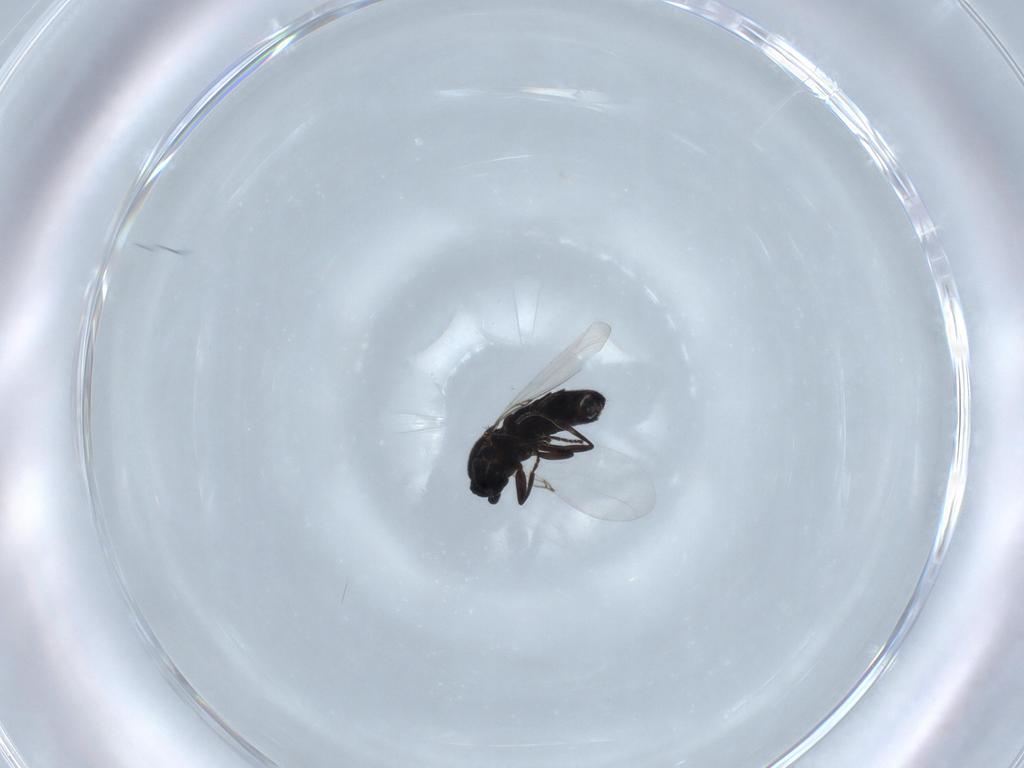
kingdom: Animalia
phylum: Arthropoda
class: Insecta
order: Diptera
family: Scatopsidae
